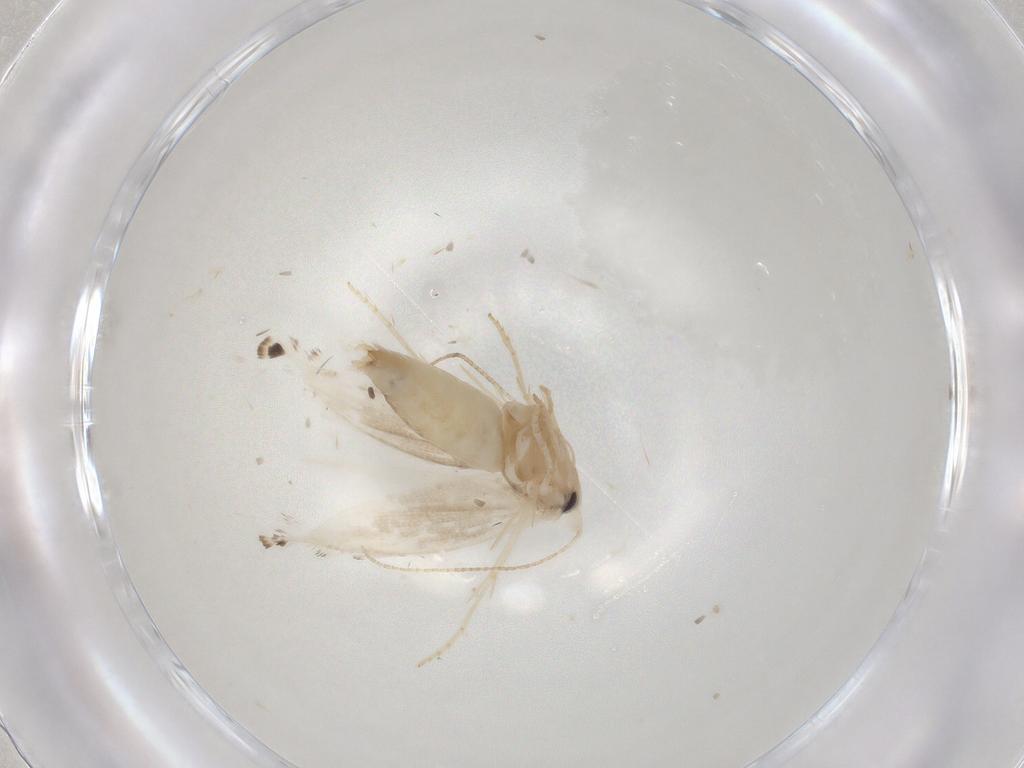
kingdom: Animalia
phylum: Arthropoda
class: Insecta
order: Lepidoptera
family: Gracillariidae
